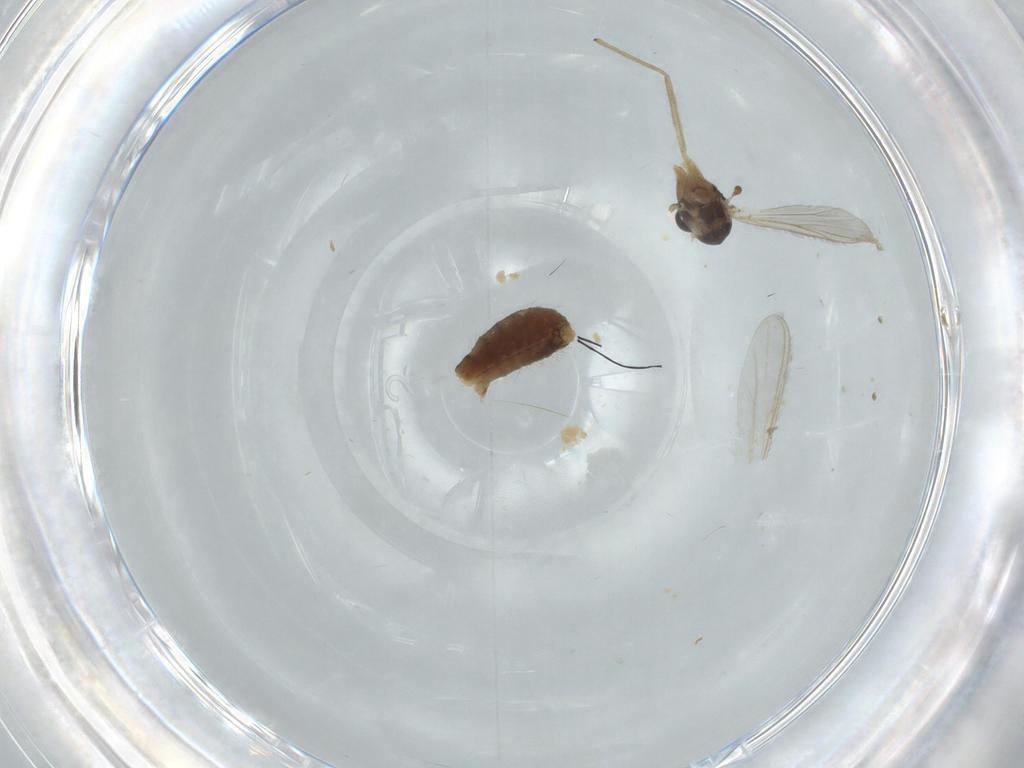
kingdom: Animalia
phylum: Arthropoda
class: Insecta
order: Diptera
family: Chironomidae
